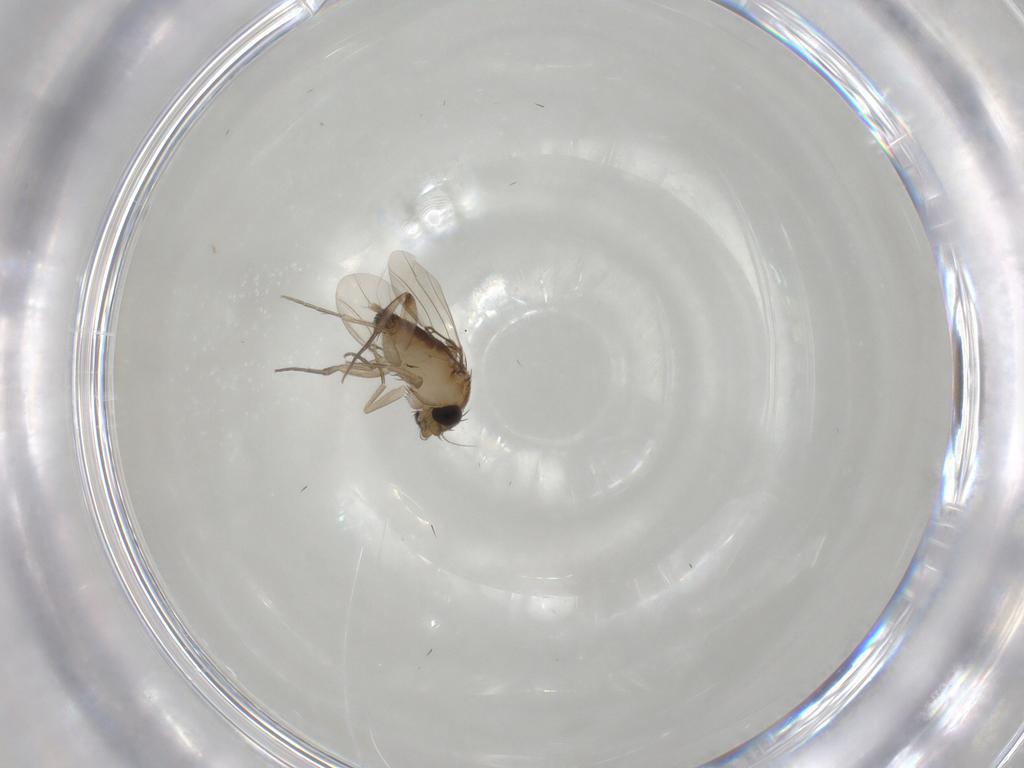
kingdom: Animalia
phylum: Arthropoda
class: Insecta
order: Diptera
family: Phoridae
